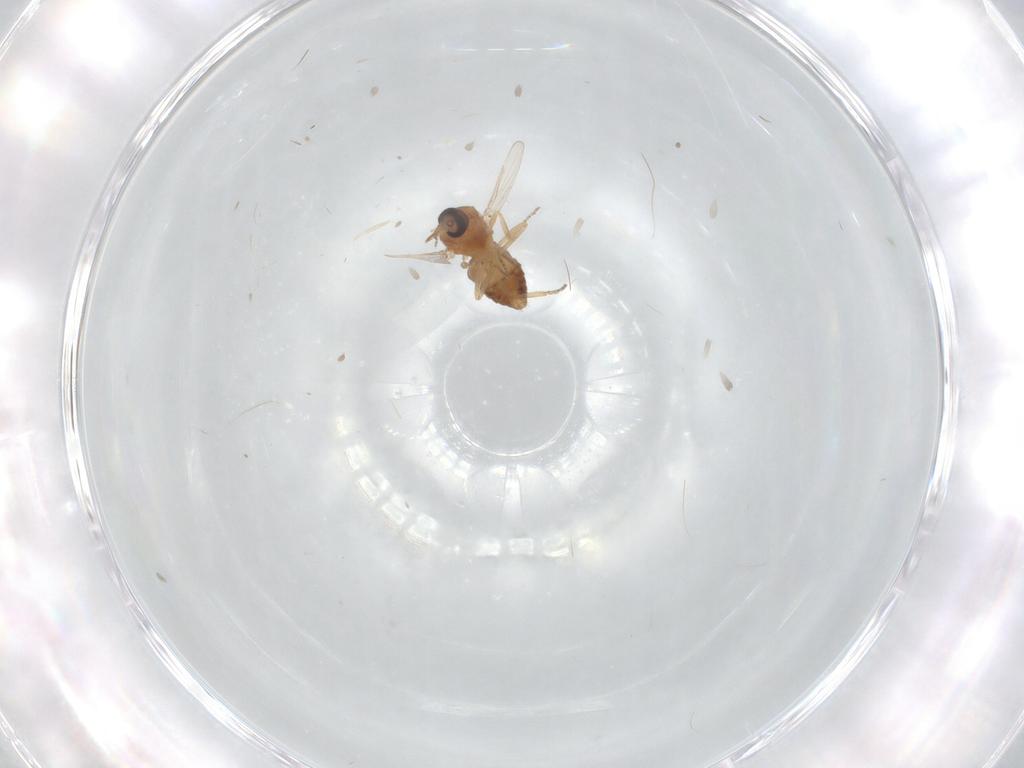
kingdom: Animalia
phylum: Arthropoda
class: Insecta
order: Diptera
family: Ceratopogonidae
